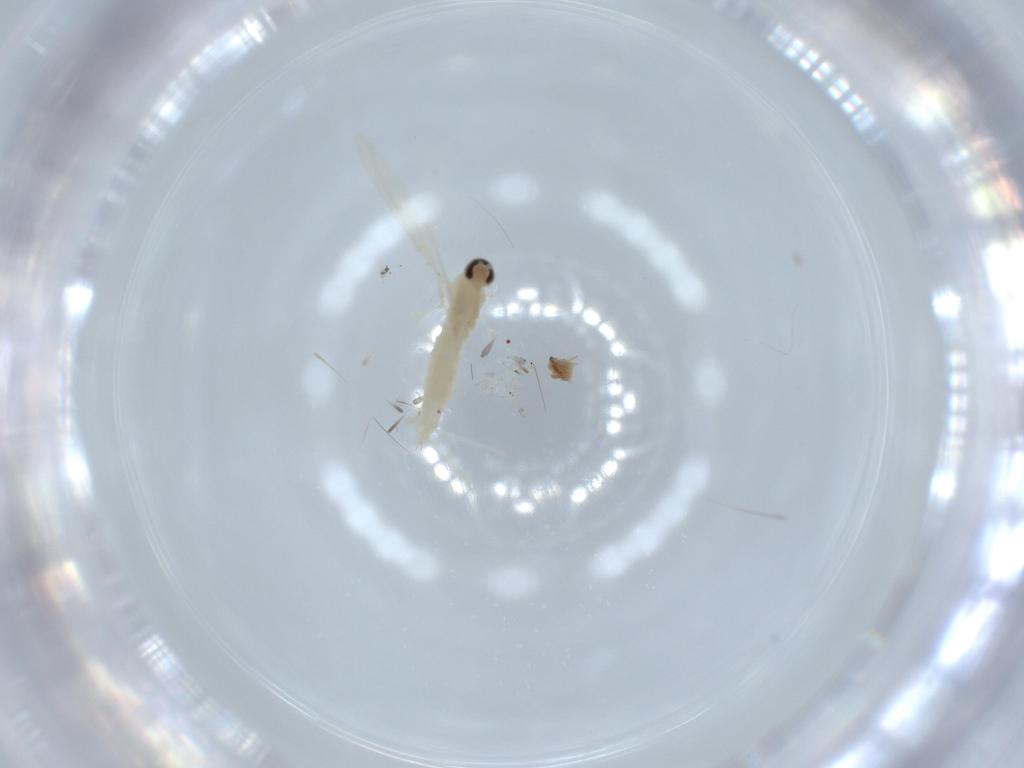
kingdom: Animalia
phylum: Arthropoda
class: Insecta
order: Diptera
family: Cecidomyiidae
